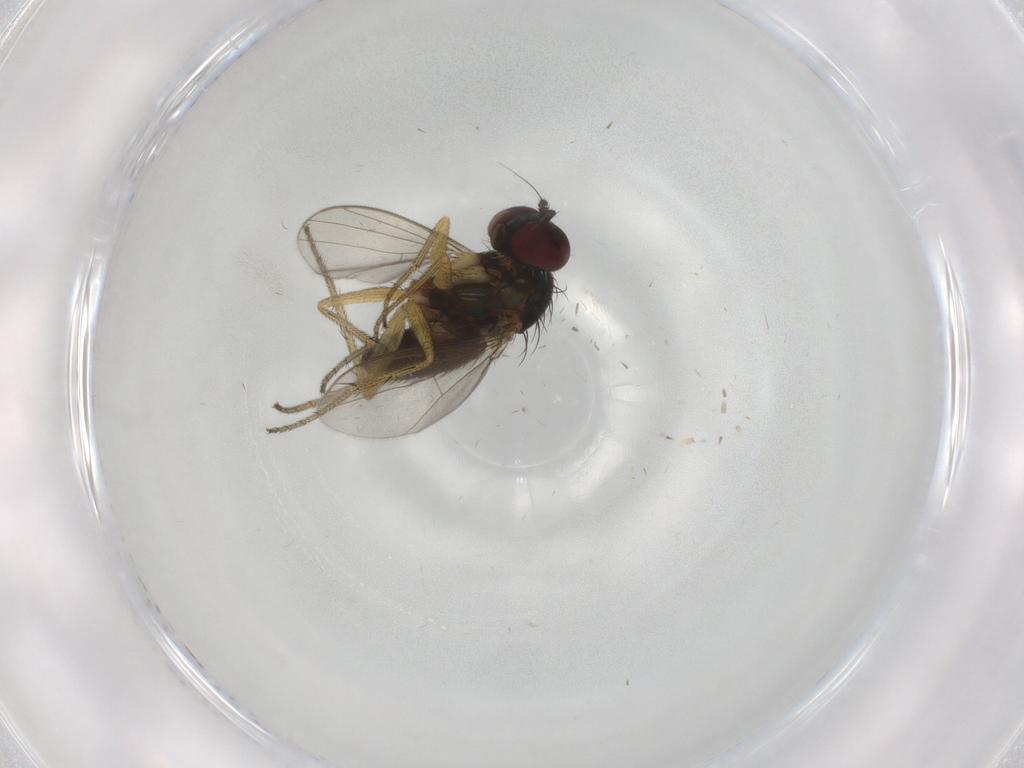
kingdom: Animalia
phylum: Arthropoda
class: Insecta
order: Diptera
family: Dolichopodidae
